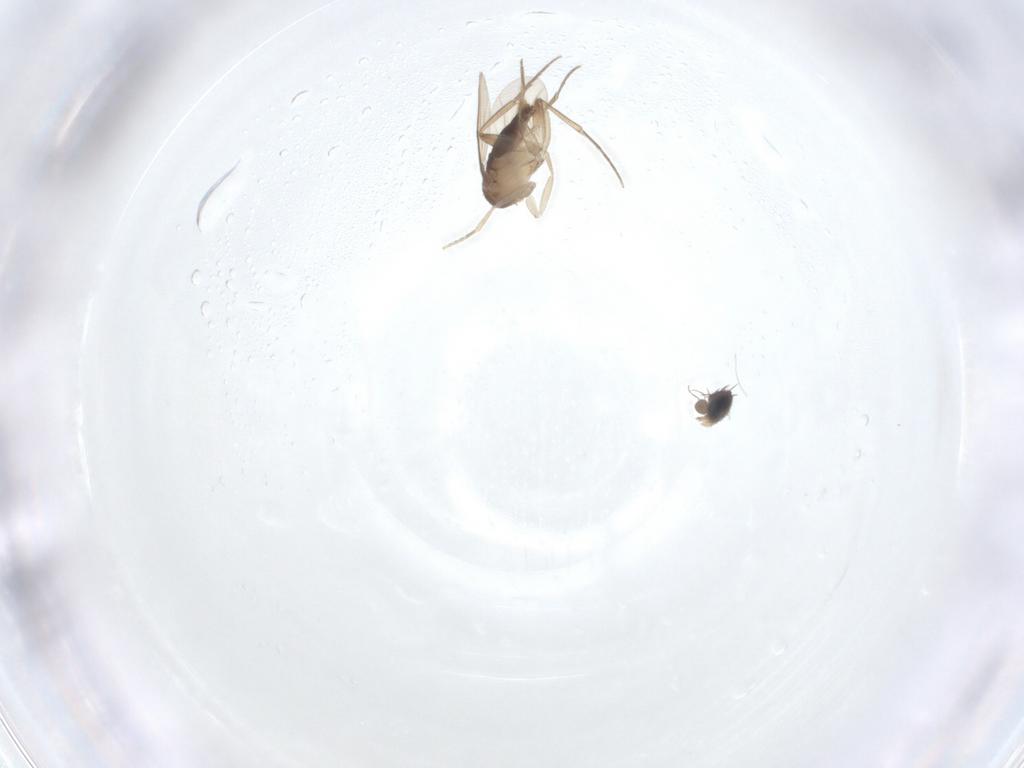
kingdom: Animalia
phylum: Arthropoda
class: Insecta
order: Diptera
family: Phoridae
